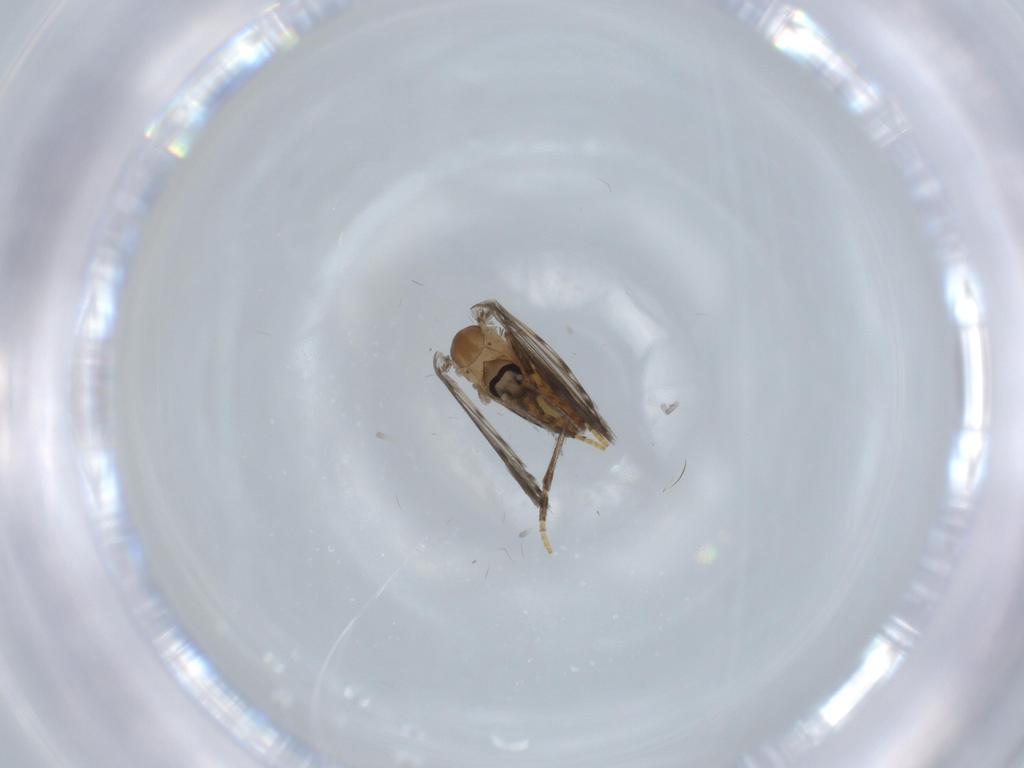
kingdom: Animalia
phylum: Arthropoda
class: Insecta
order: Diptera
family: Psychodidae
